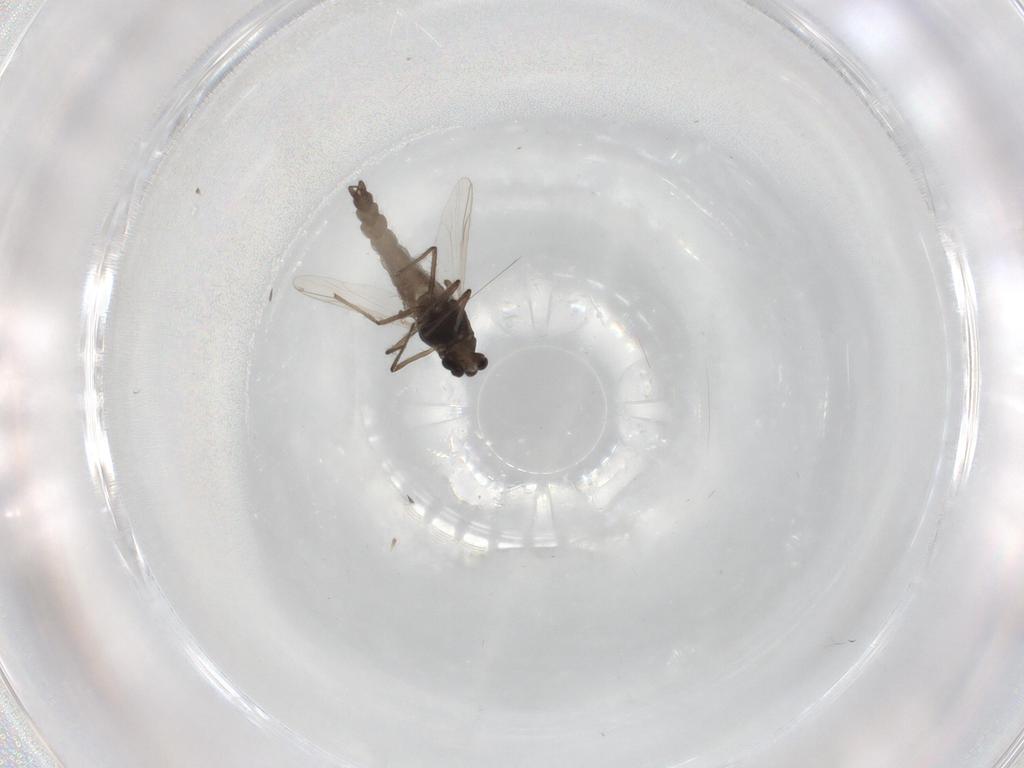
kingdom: Animalia
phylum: Arthropoda
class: Insecta
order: Diptera
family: Chironomidae
